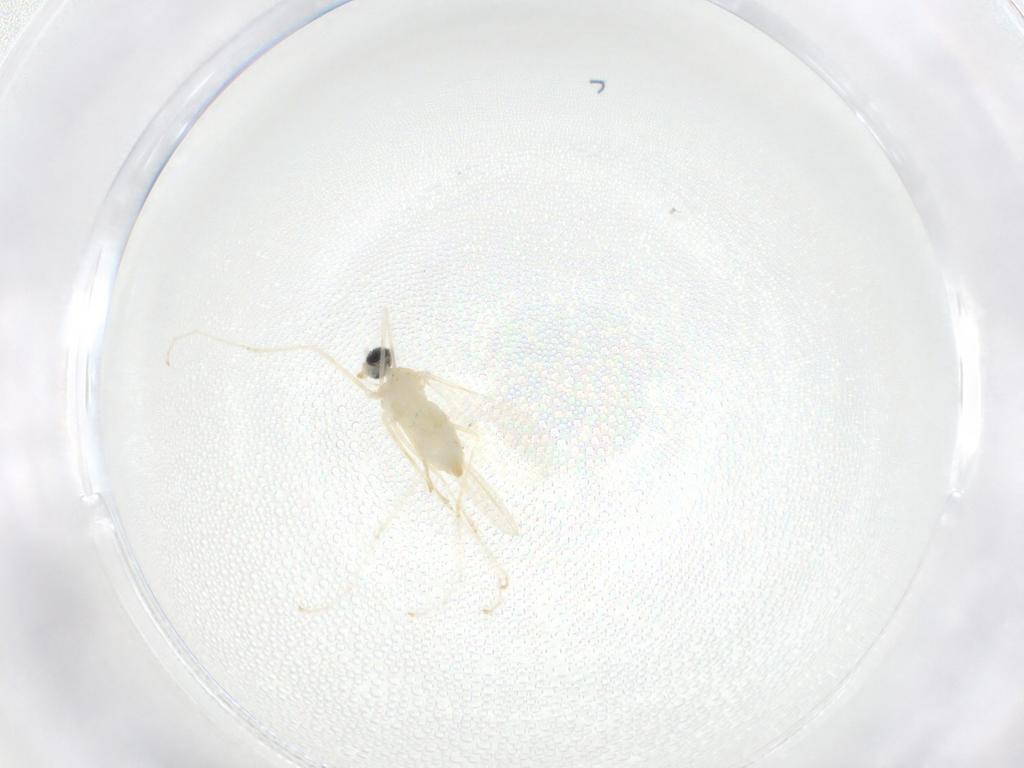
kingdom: Animalia
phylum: Arthropoda
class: Insecta
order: Diptera
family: Cecidomyiidae
